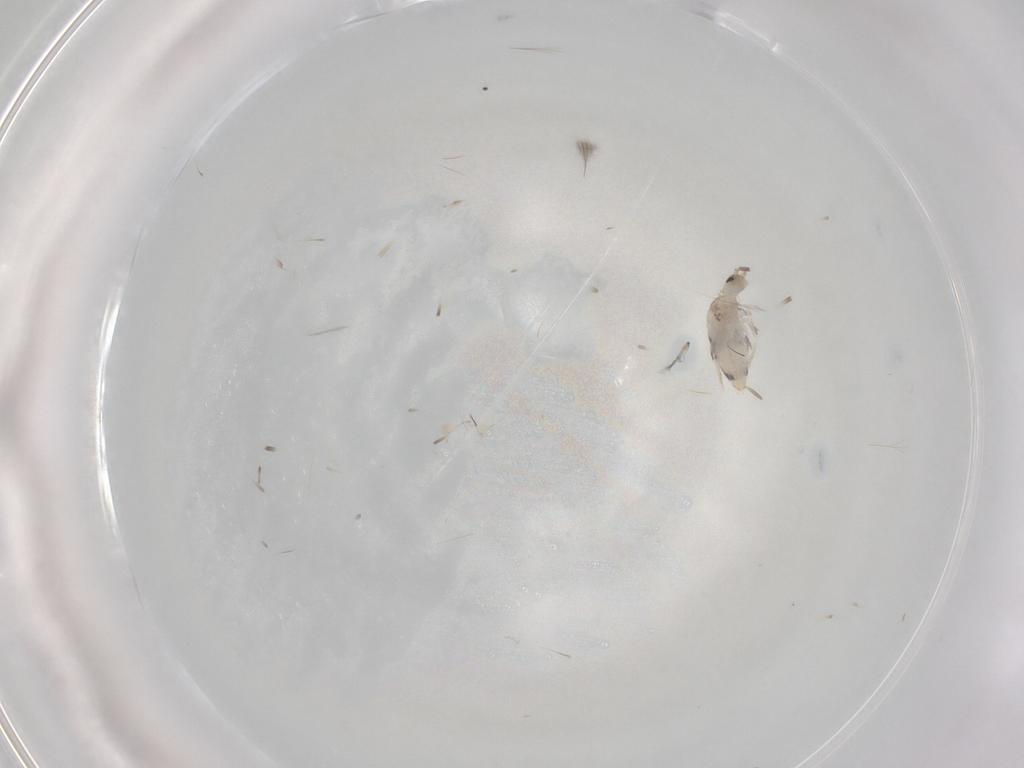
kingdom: Animalia
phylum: Arthropoda
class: Collembola
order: Entomobryomorpha
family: Entomobryidae
